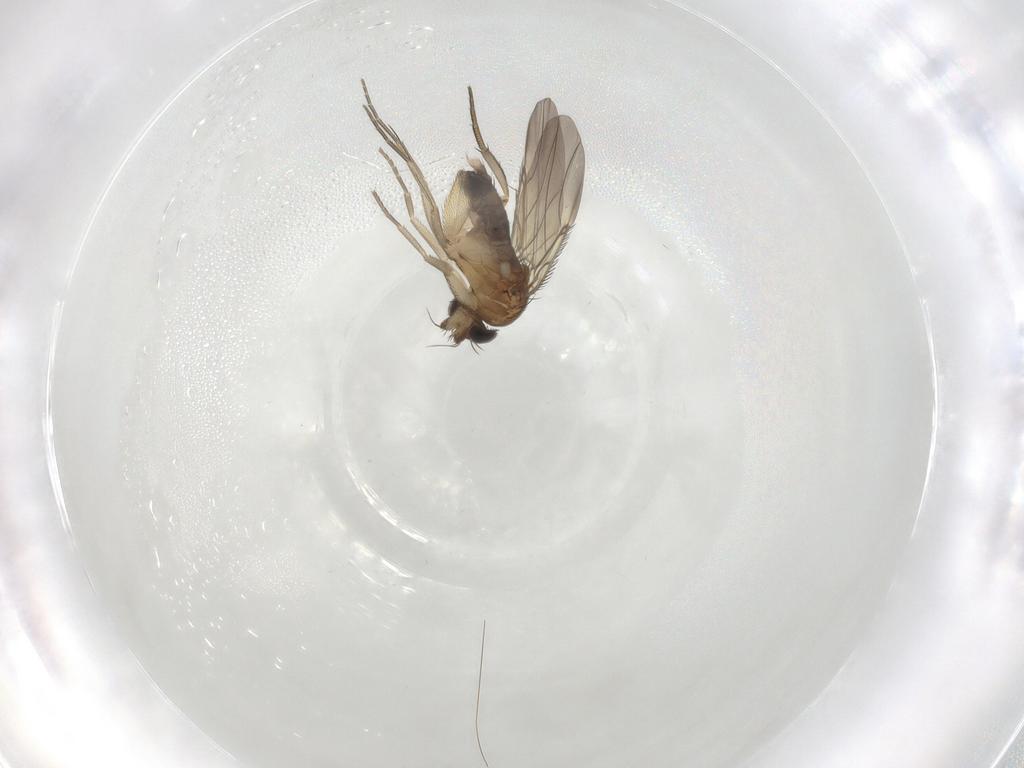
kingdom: Animalia
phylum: Arthropoda
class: Insecta
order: Diptera
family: Phoridae
